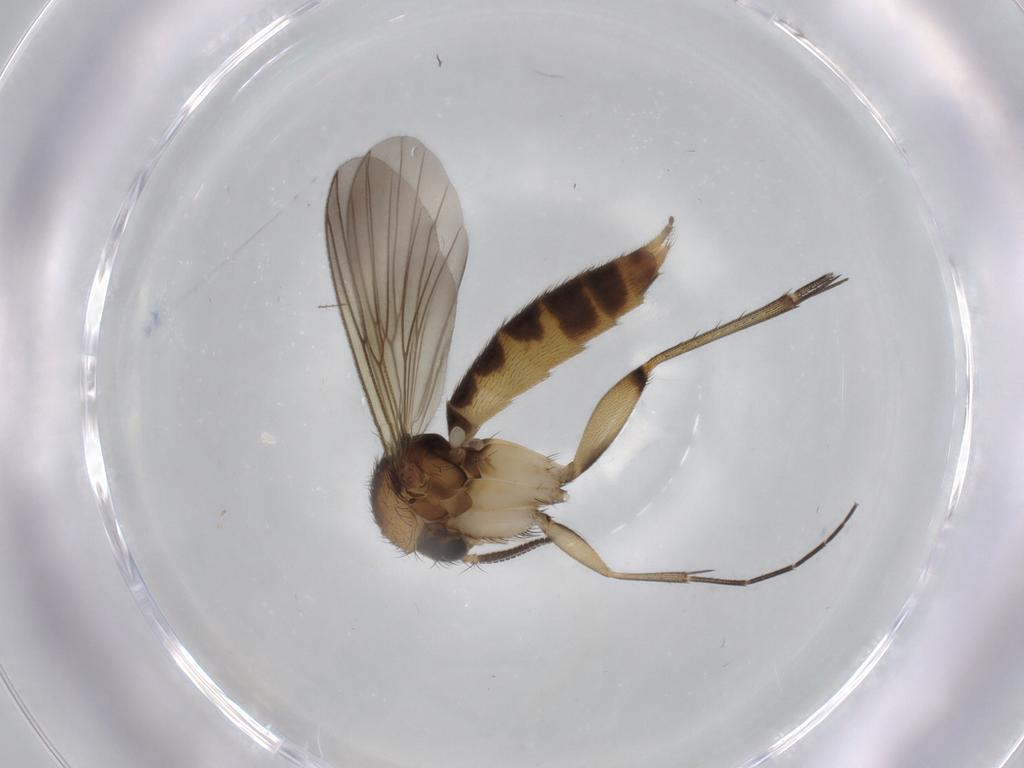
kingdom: Animalia
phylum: Arthropoda
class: Insecta
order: Diptera
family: Mycetophilidae
